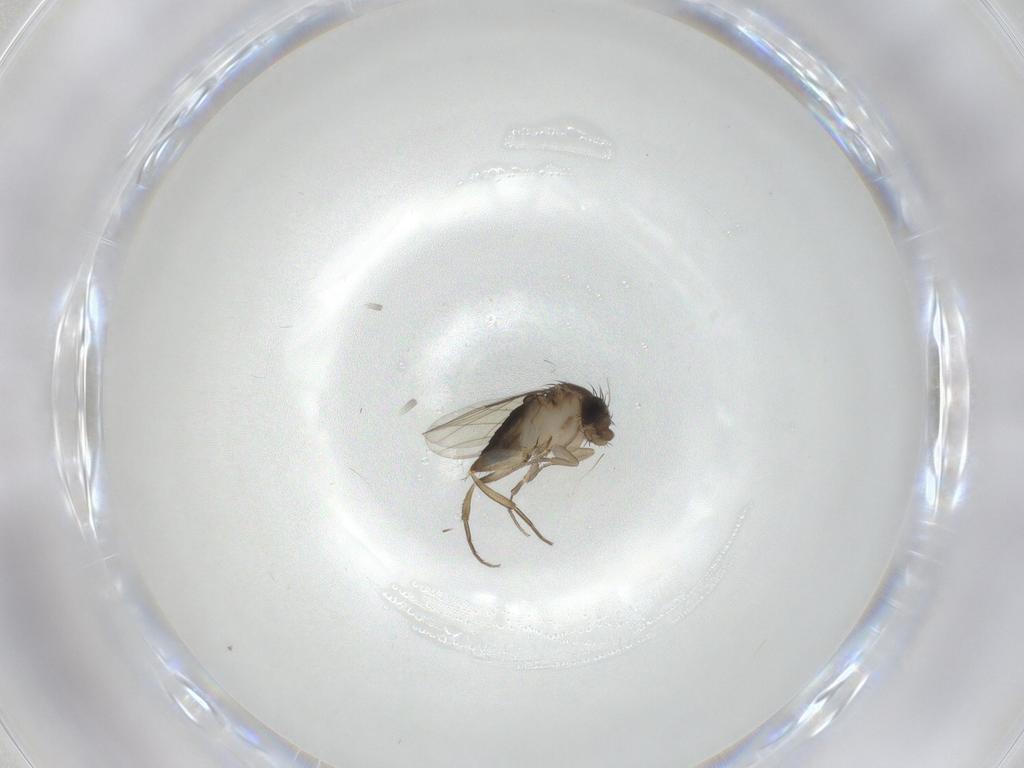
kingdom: Animalia
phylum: Arthropoda
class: Insecta
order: Diptera
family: Phoridae
